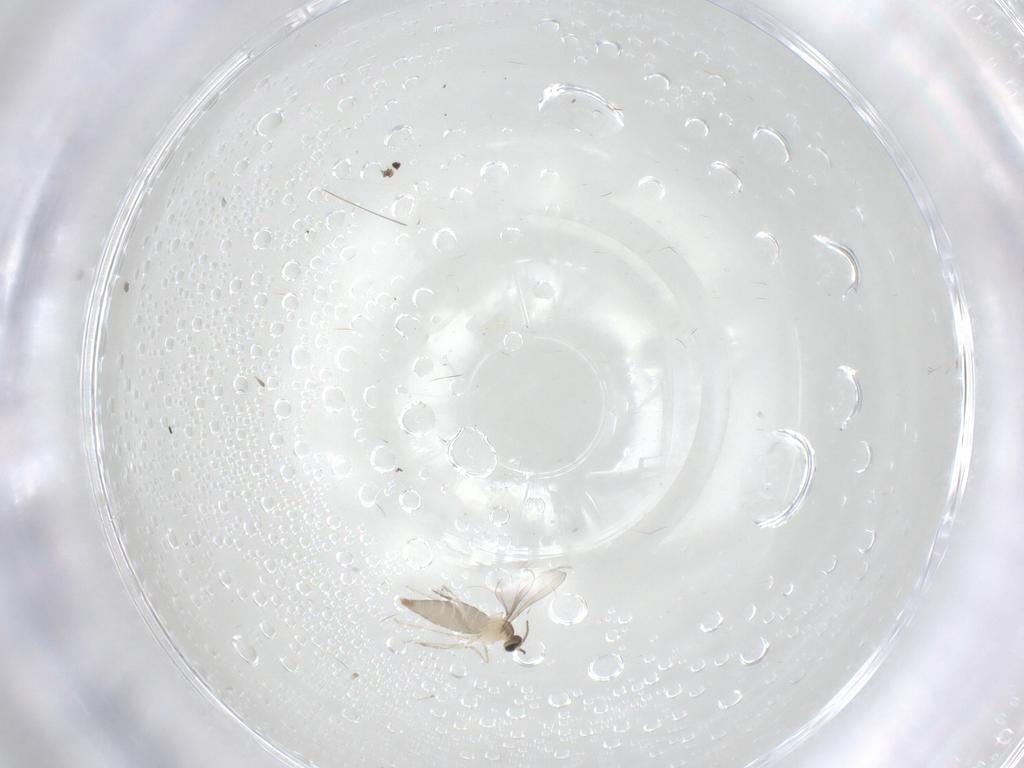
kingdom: Animalia
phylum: Arthropoda
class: Insecta
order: Diptera
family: Cecidomyiidae
